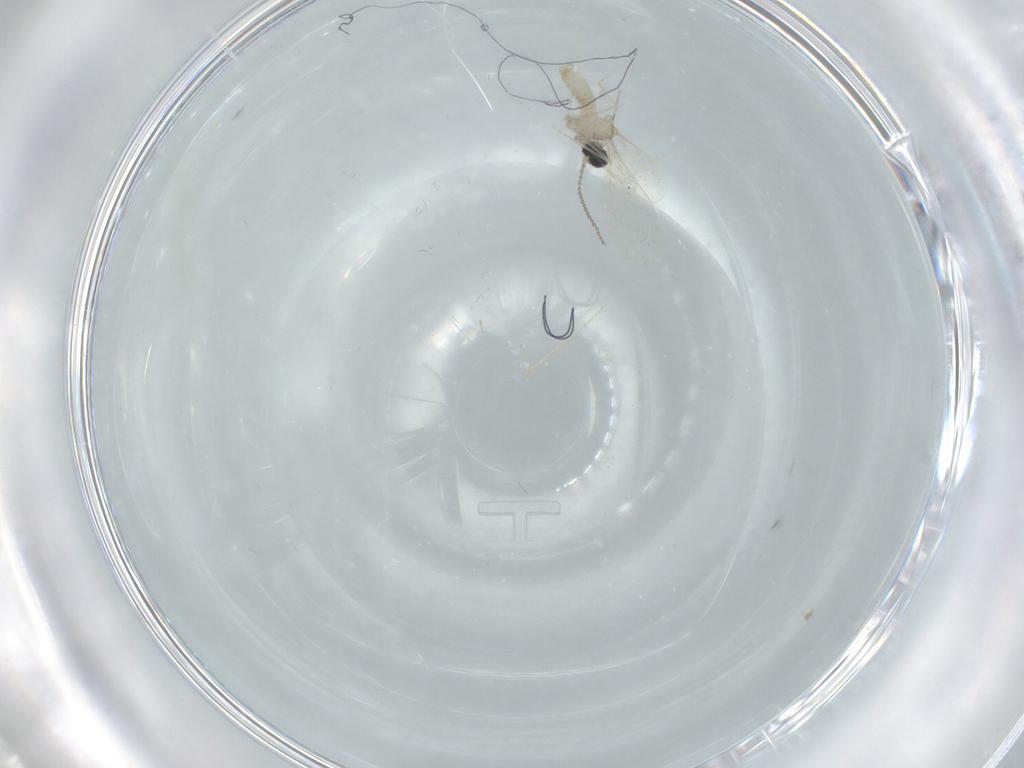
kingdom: Animalia
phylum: Arthropoda
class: Insecta
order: Diptera
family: Cecidomyiidae
